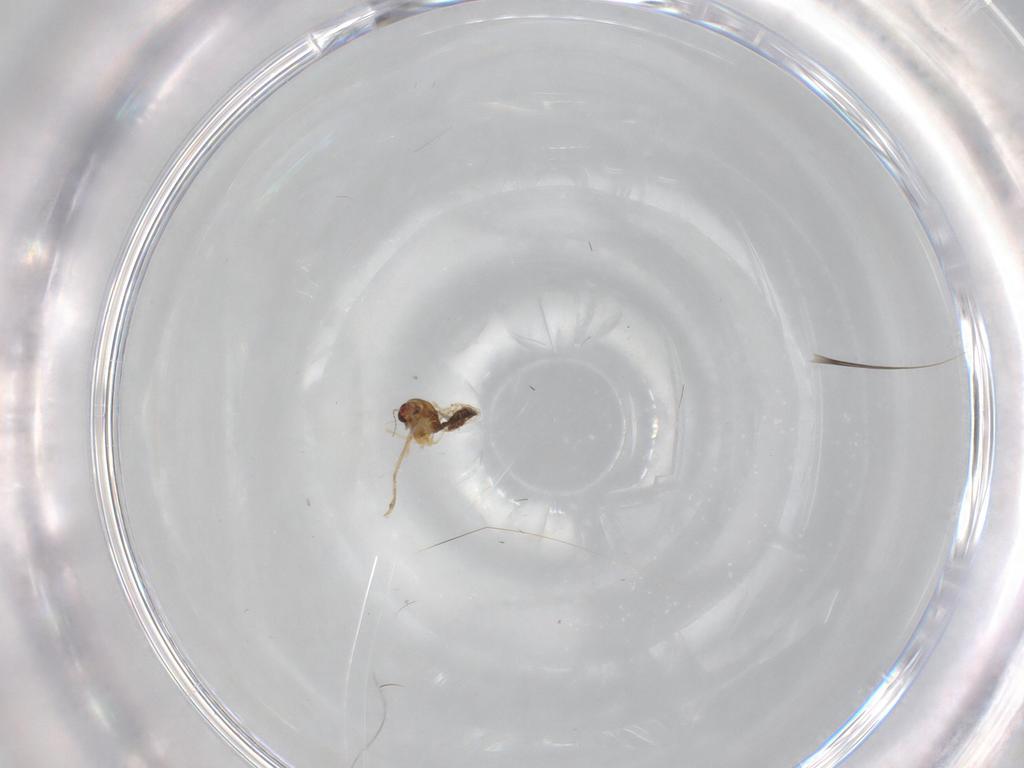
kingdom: Animalia
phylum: Arthropoda
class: Insecta
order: Diptera
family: Chironomidae
